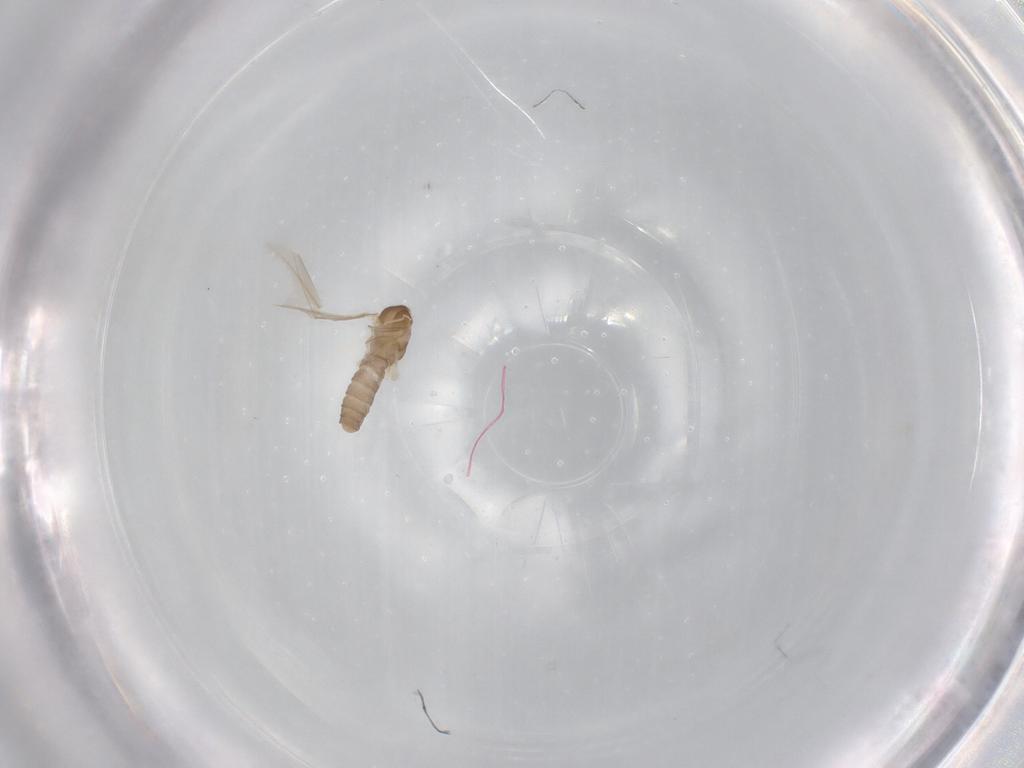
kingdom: Animalia
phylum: Arthropoda
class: Insecta
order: Diptera
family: Cecidomyiidae
